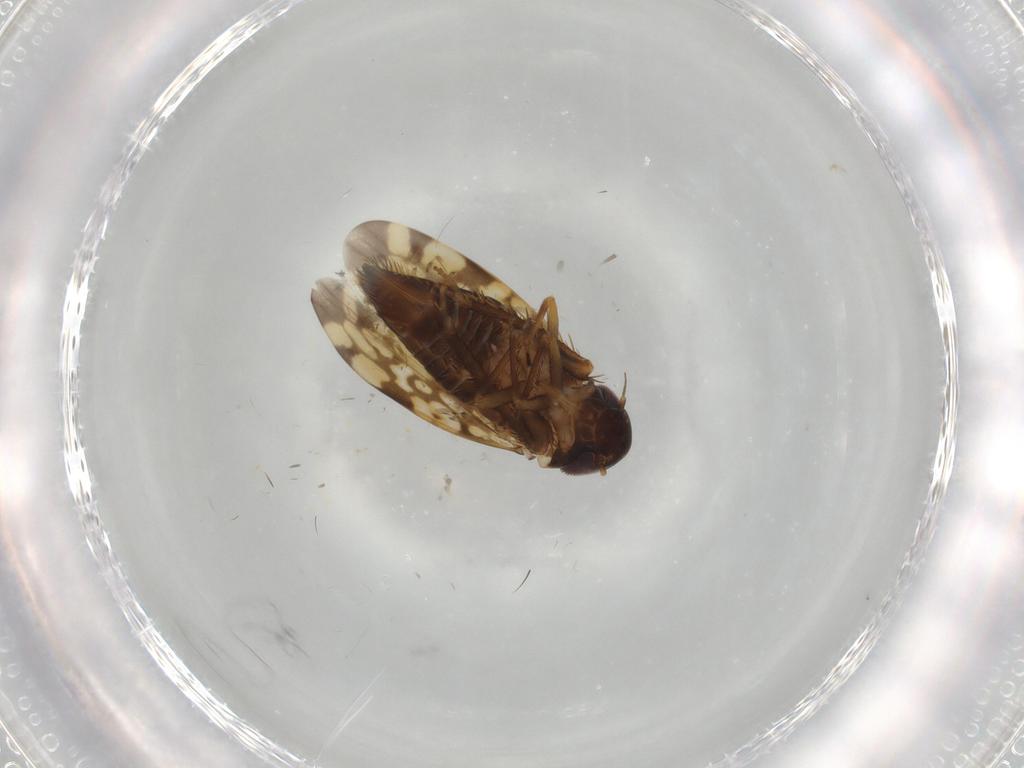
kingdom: Animalia
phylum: Arthropoda
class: Insecta
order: Hemiptera
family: Cicadellidae
